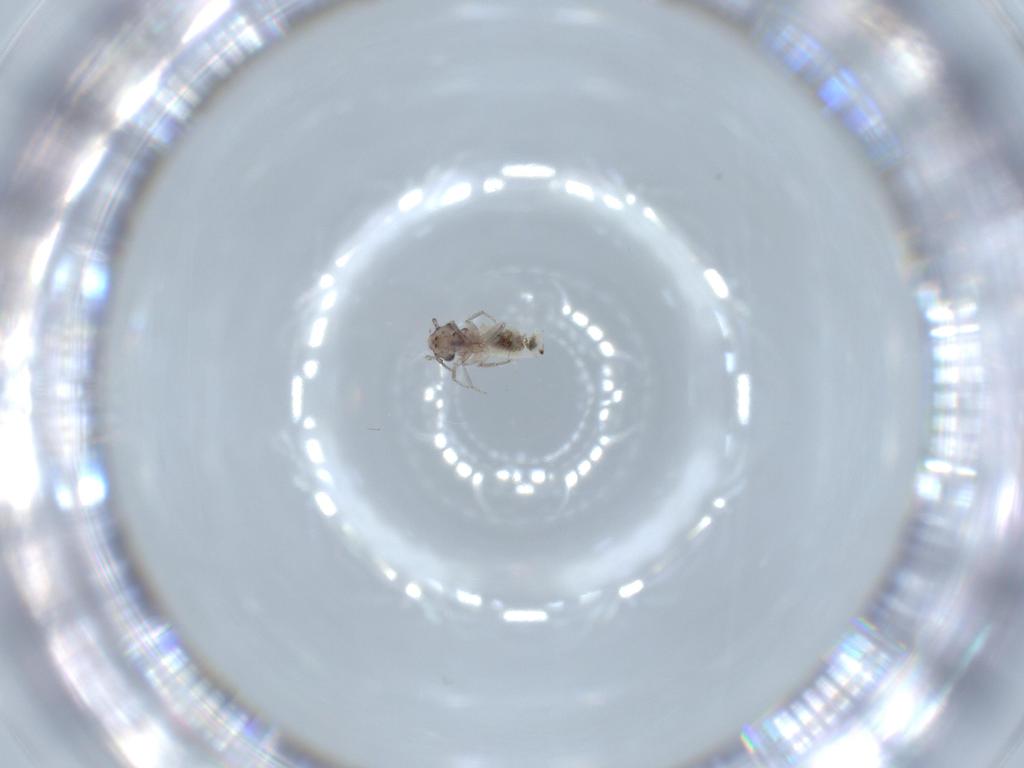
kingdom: Animalia
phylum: Arthropoda
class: Insecta
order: Psocodea
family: Lepidopsocidae
